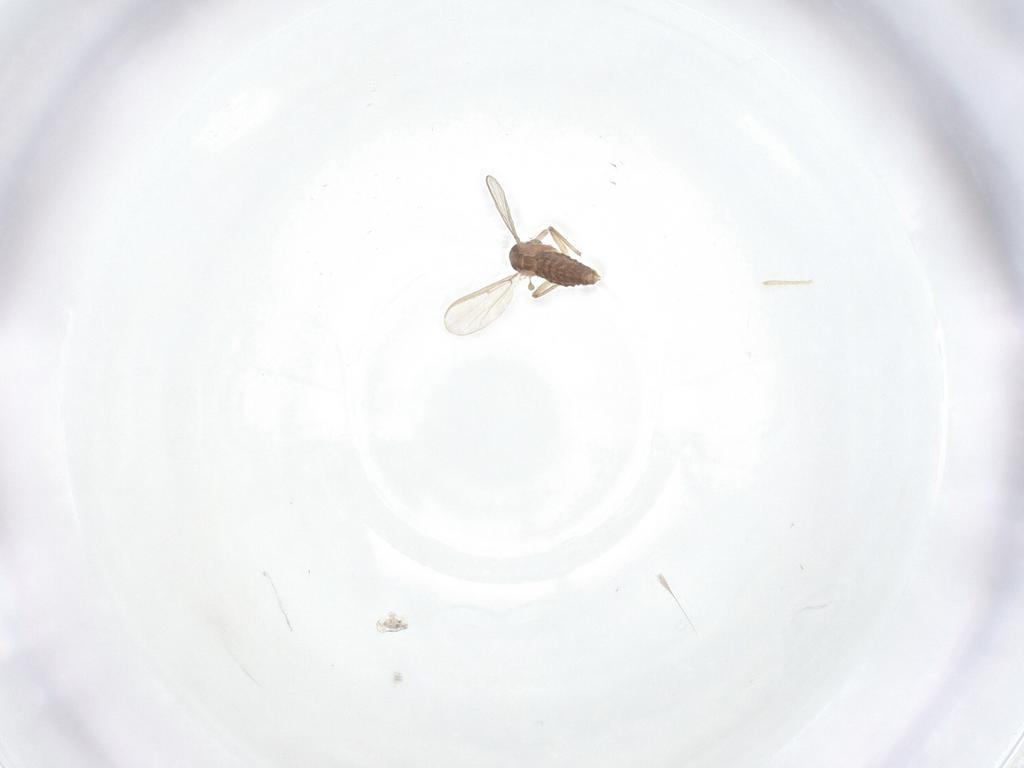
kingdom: Animalia
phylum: Arthropoda
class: Insecta
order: Diptera
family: Chironomidae
